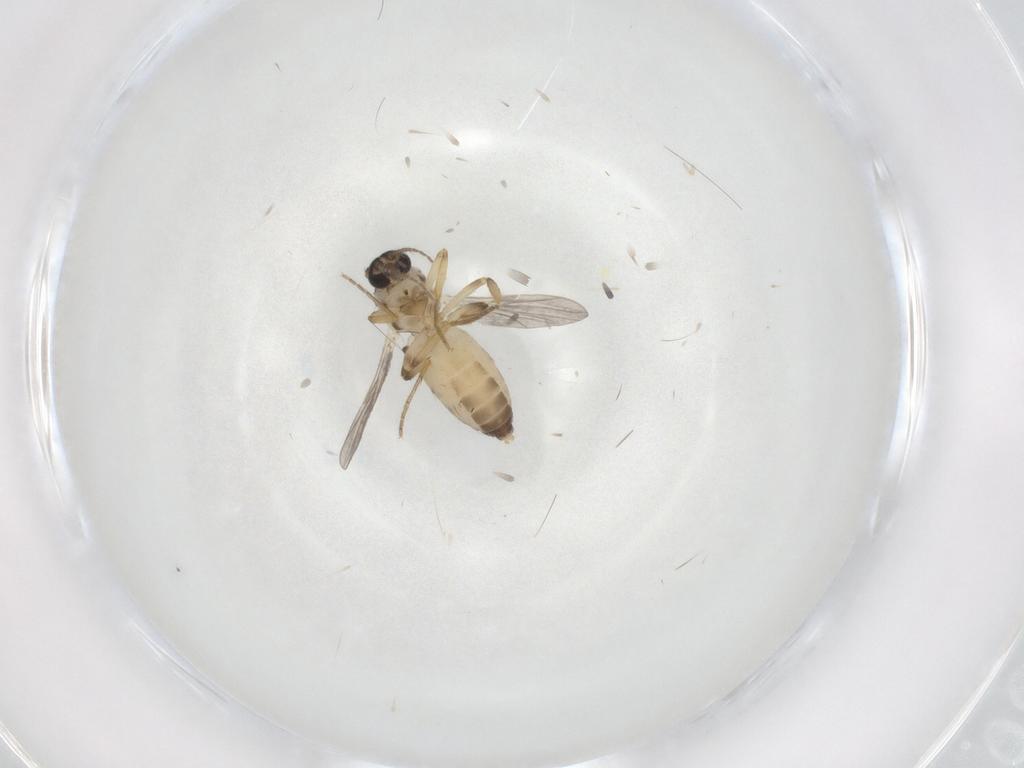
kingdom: Animalia
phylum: Arthropoda
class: Insecta
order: Diptera
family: Ceratopogonidae
